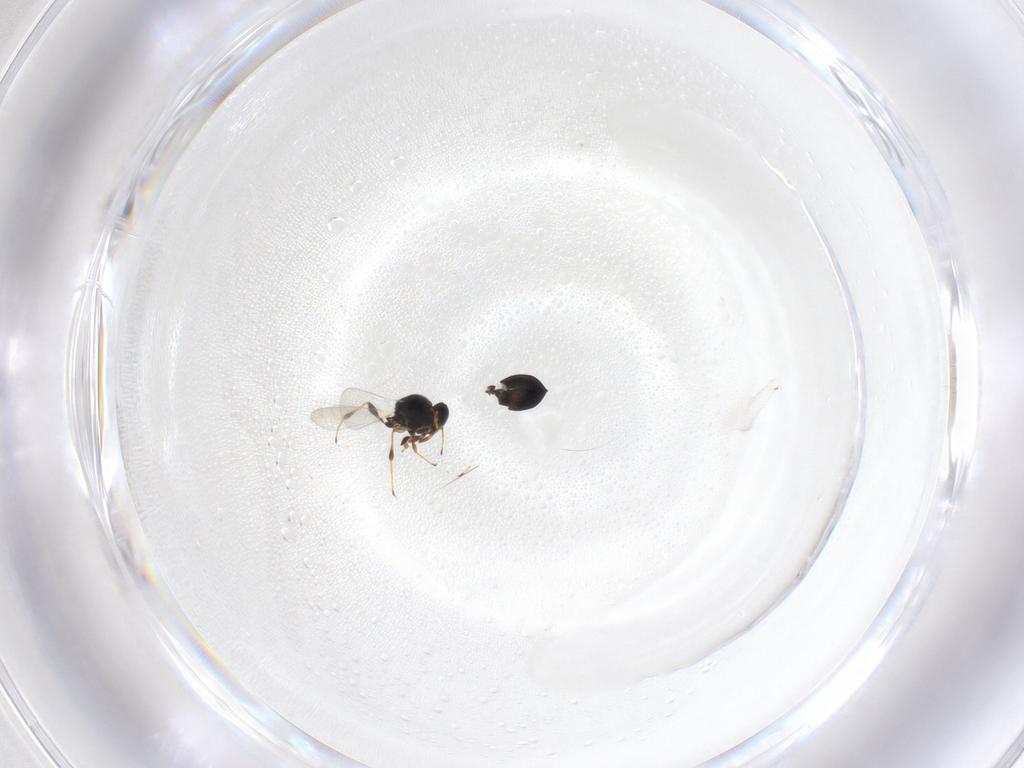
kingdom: Animalia
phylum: Arthropoda
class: Insecta
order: Hymenoptera
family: Platygastridae
